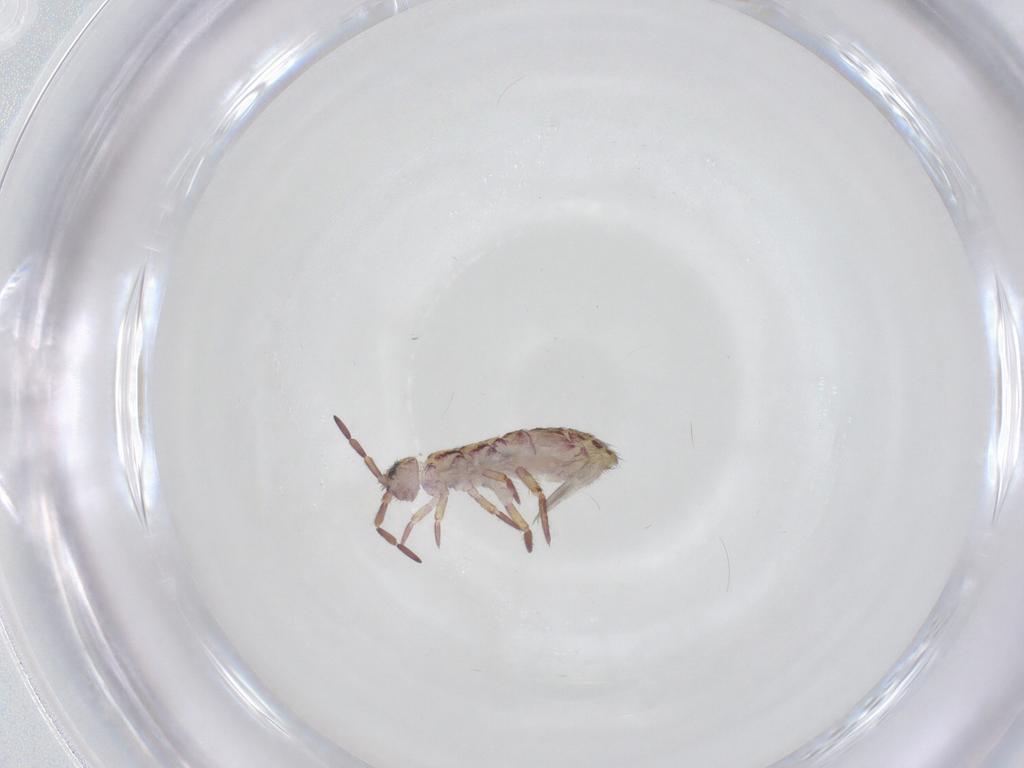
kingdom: Animalia
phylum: Arthropoda
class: Collembola
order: Entomobryomorpha
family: Isotomidae
